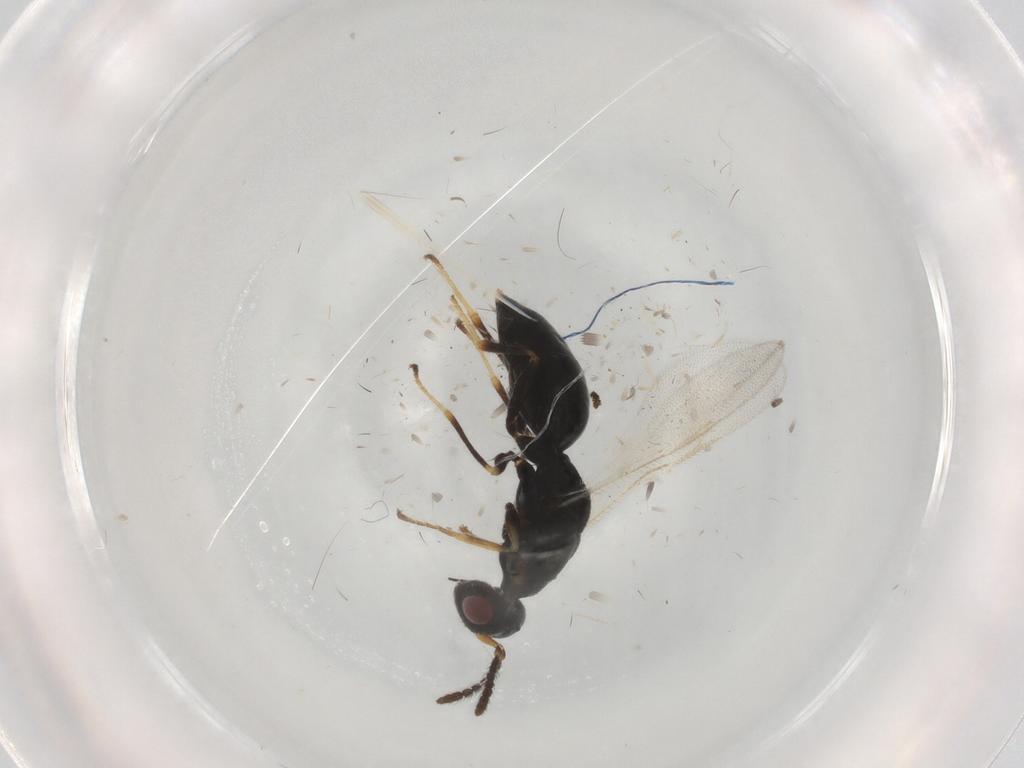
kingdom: Animalia
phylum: Arthropoda
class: Insecta
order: Hymenoptera
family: Eurytomidae
